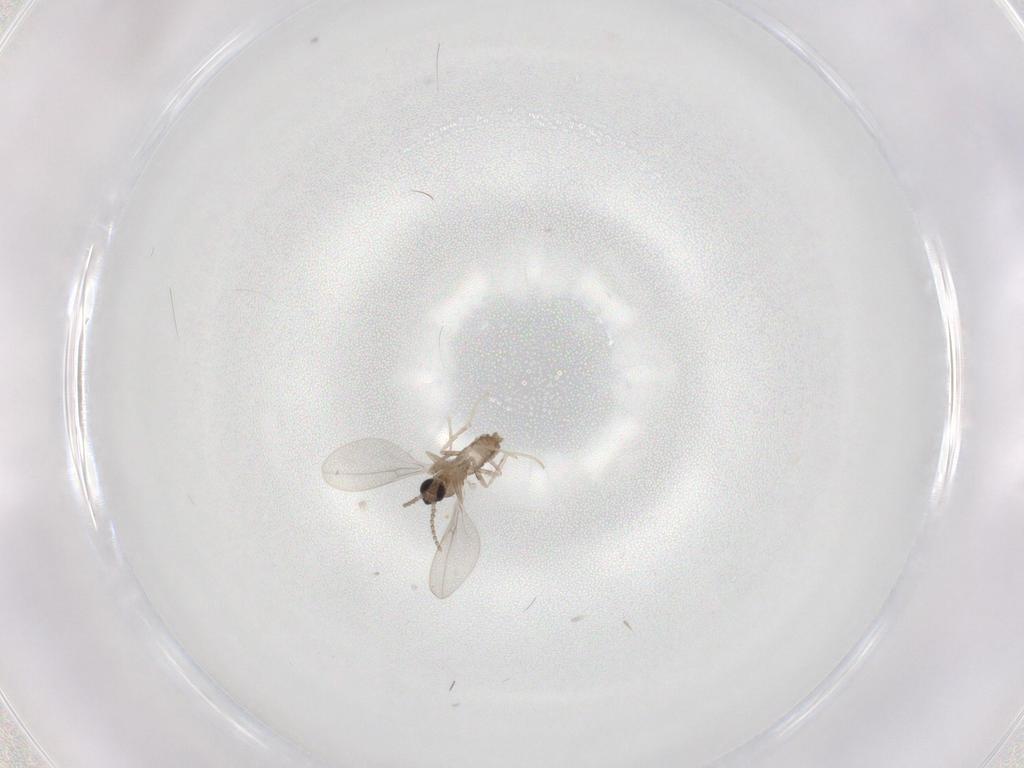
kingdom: Animalia
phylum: Arthropoda
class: Insecta
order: Diptera
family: Cecidomyiidae
